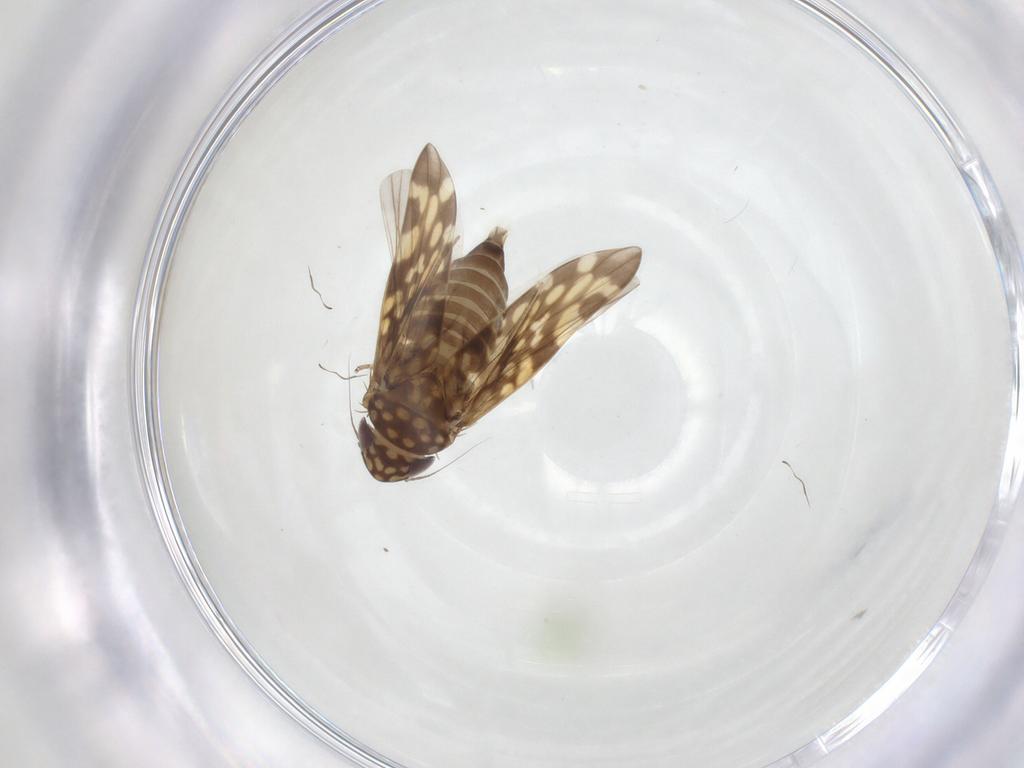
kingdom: Animalia
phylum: Arthropoda
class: Insecta
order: Hemiptera
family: Cicadellidae
